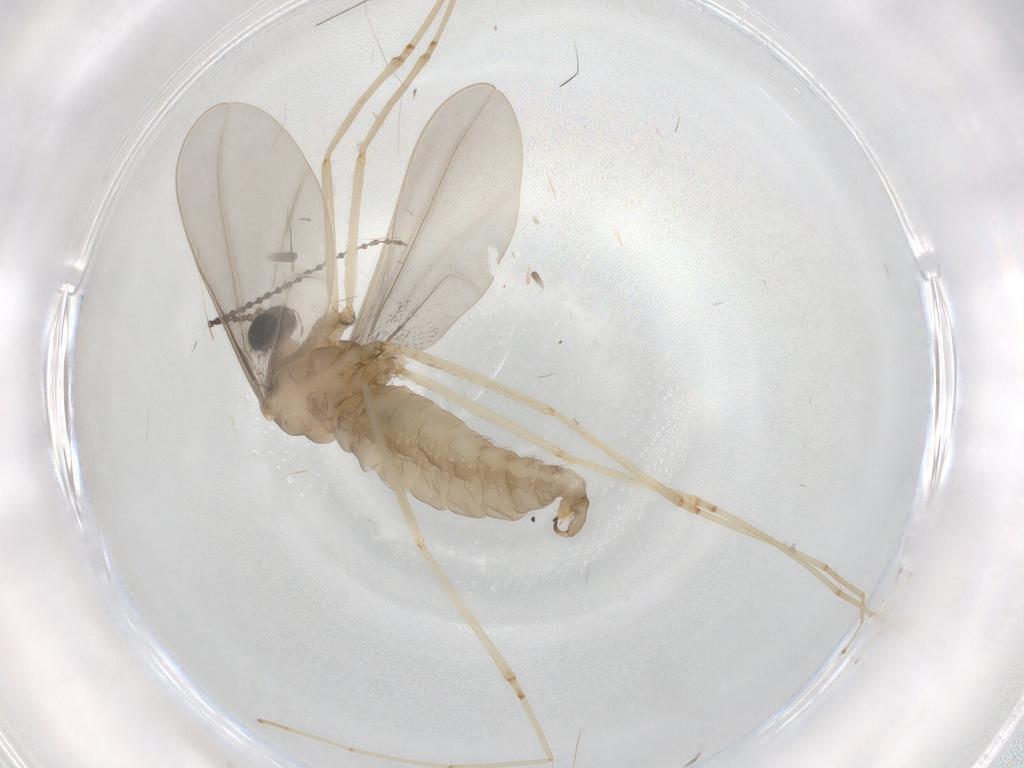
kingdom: Animalia
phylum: Arthropoda
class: Insecta
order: Diptera
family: Cecidomyiidae
